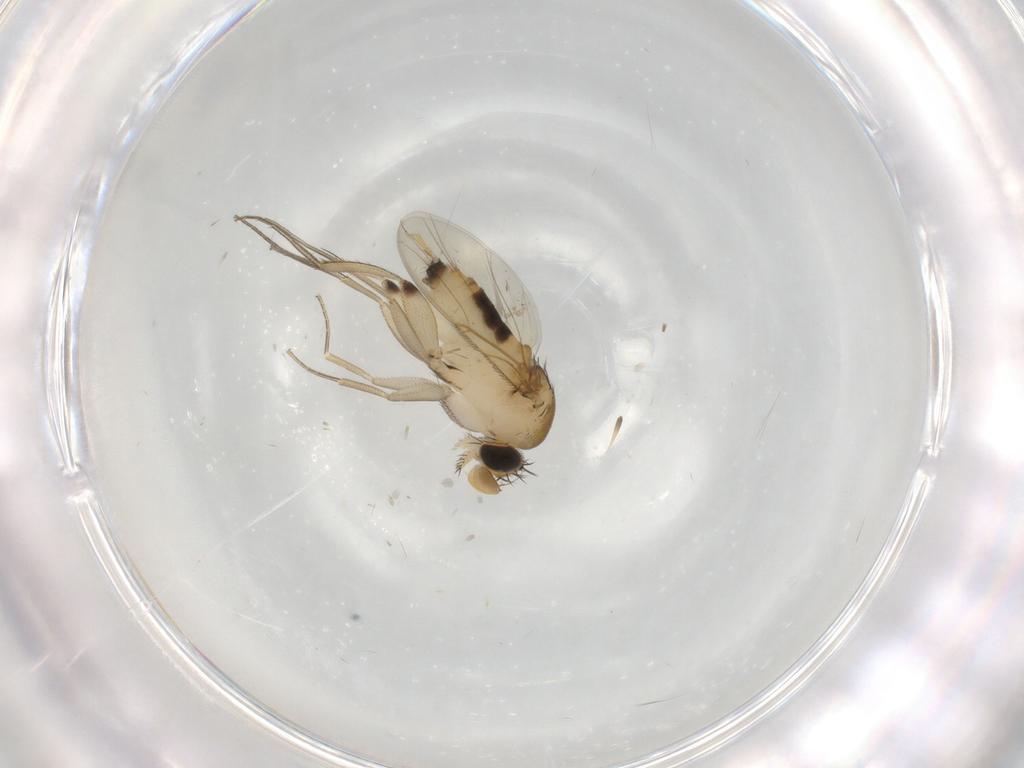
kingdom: Animalia
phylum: Arthropoda
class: Insecta
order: Diptera
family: Phoridae
